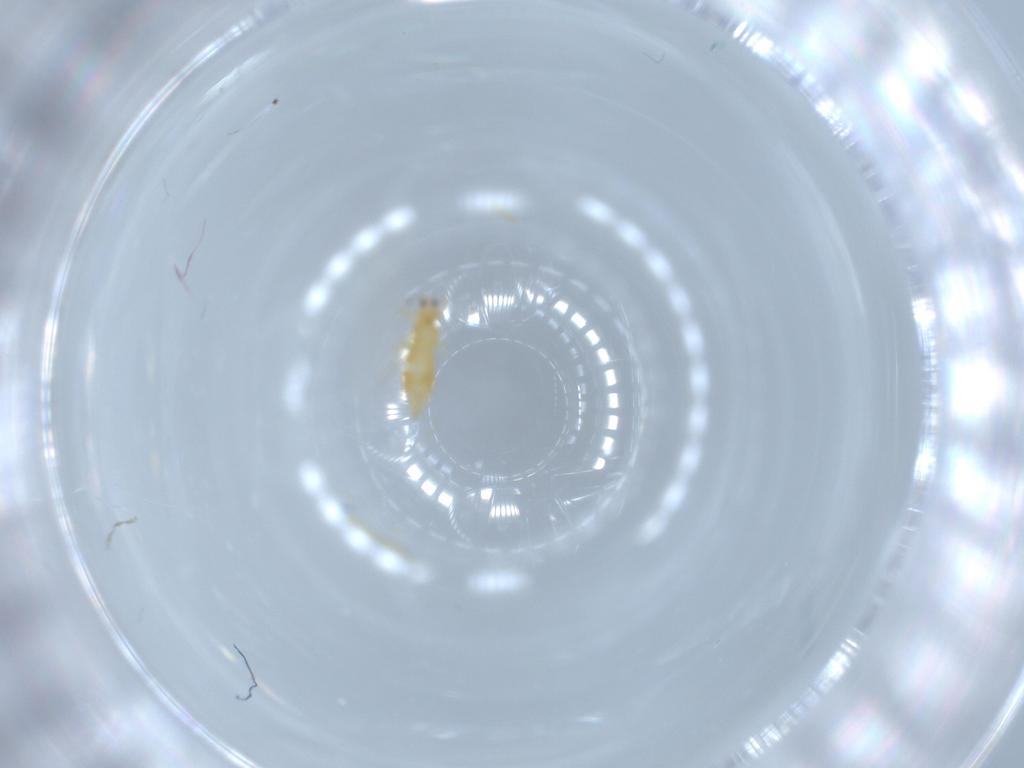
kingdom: Animalia
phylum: Arthropoda
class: Insecta
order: Thysanoptera
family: Thripidae
